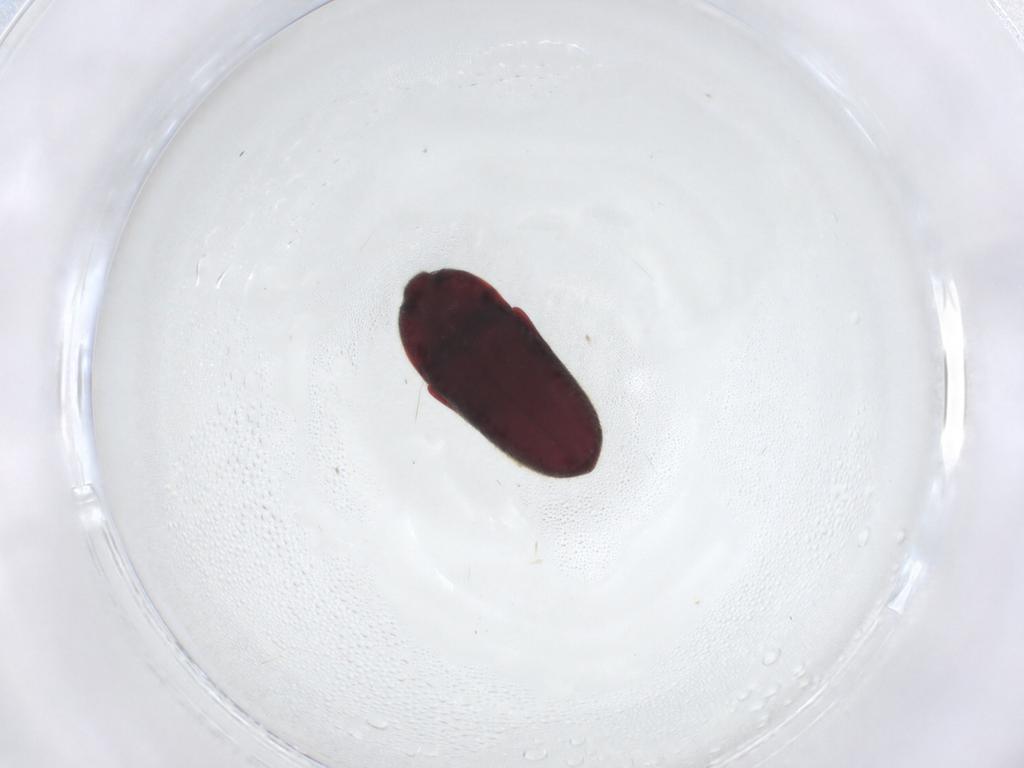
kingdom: Animalia
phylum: Arthropoda
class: Insecta
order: Coleoptera
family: Throscidae
